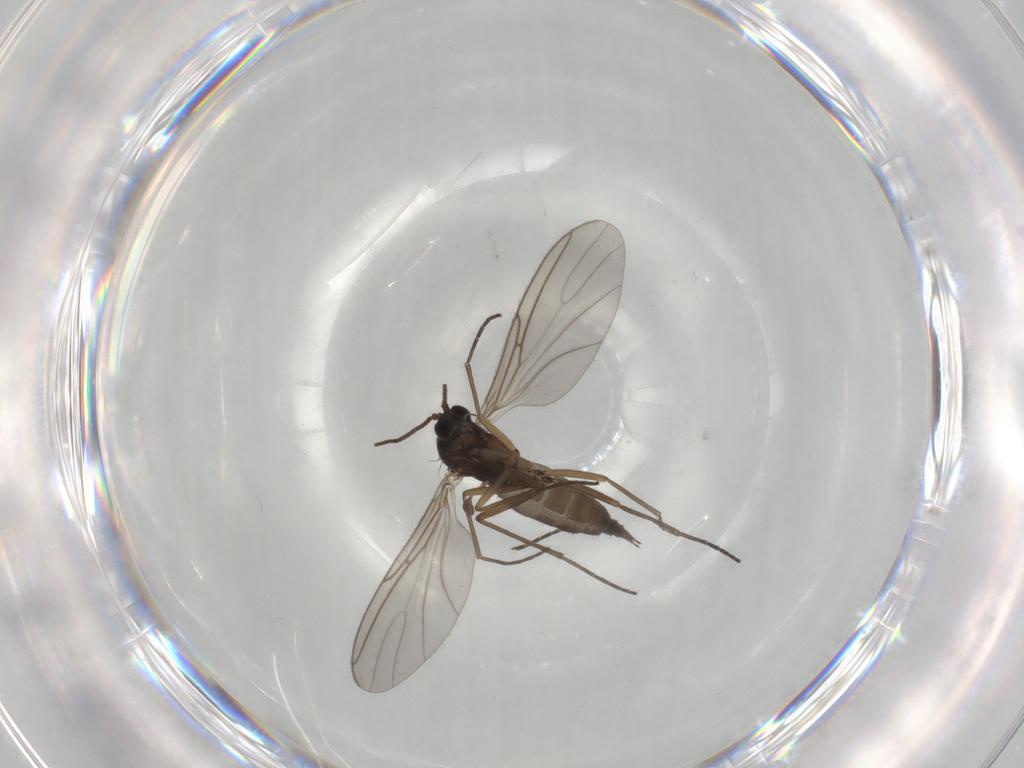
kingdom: Animalia
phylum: Arthropoda
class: Insecta
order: Diptera
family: Sciaridae
